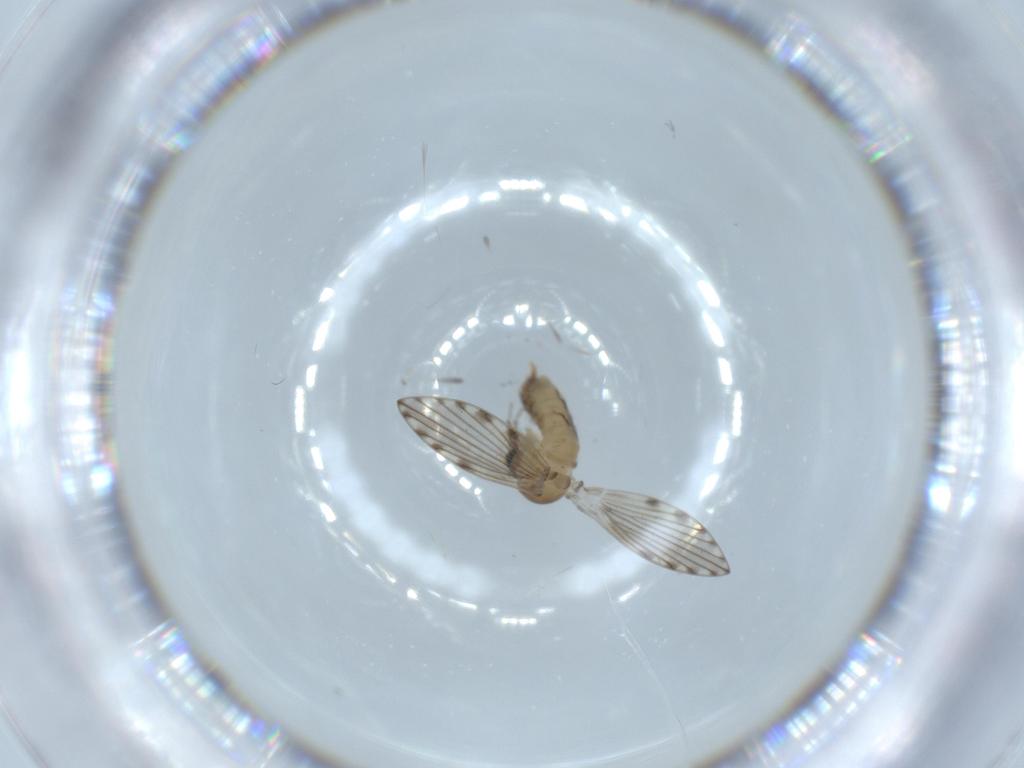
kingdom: Animalia
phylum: Arthropoda
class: Insecta
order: Diptera
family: Psychodidae
